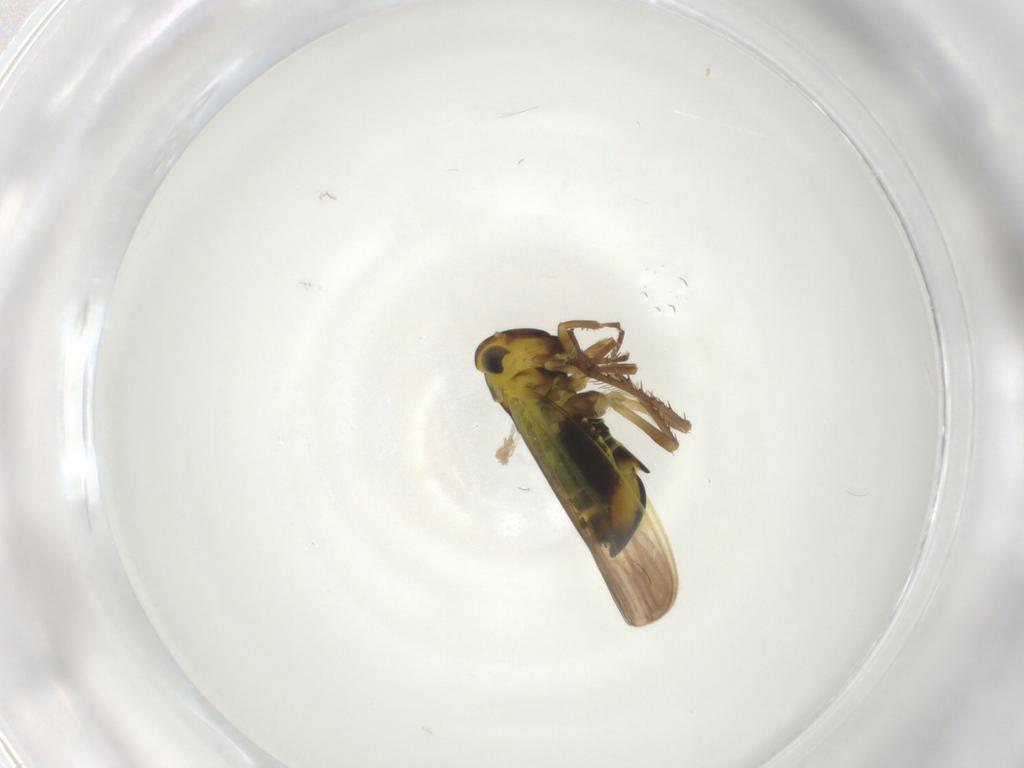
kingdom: Animalia
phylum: Arthropoda
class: Insecta
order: Hemiptera
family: Cicadellidae
